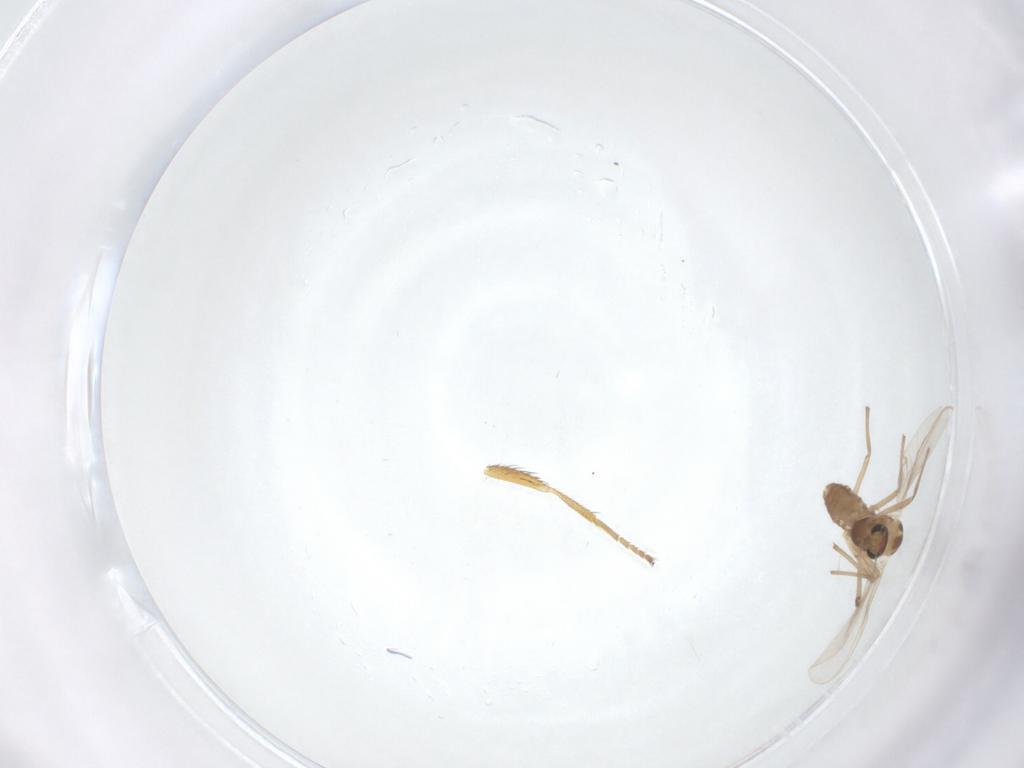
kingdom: Animalia
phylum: Arthropoda
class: Insecta
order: Diptera
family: Chironomidae
